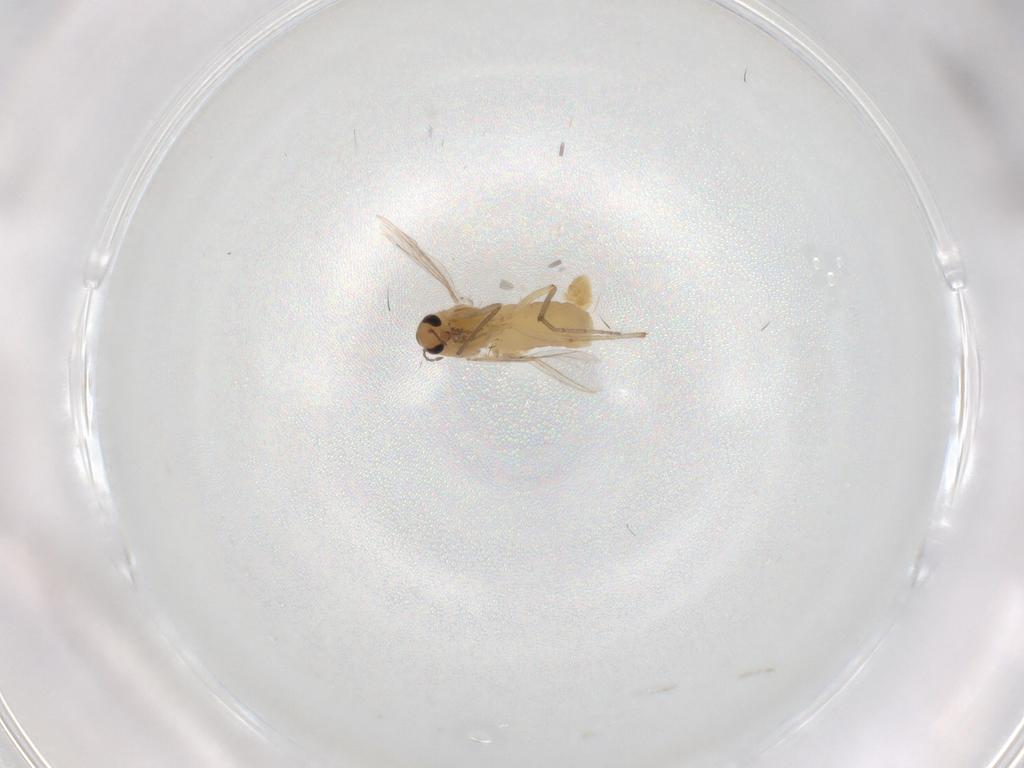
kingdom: Animalia
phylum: Arthropoda
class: Insecta
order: Diptera
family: Chironomidae
